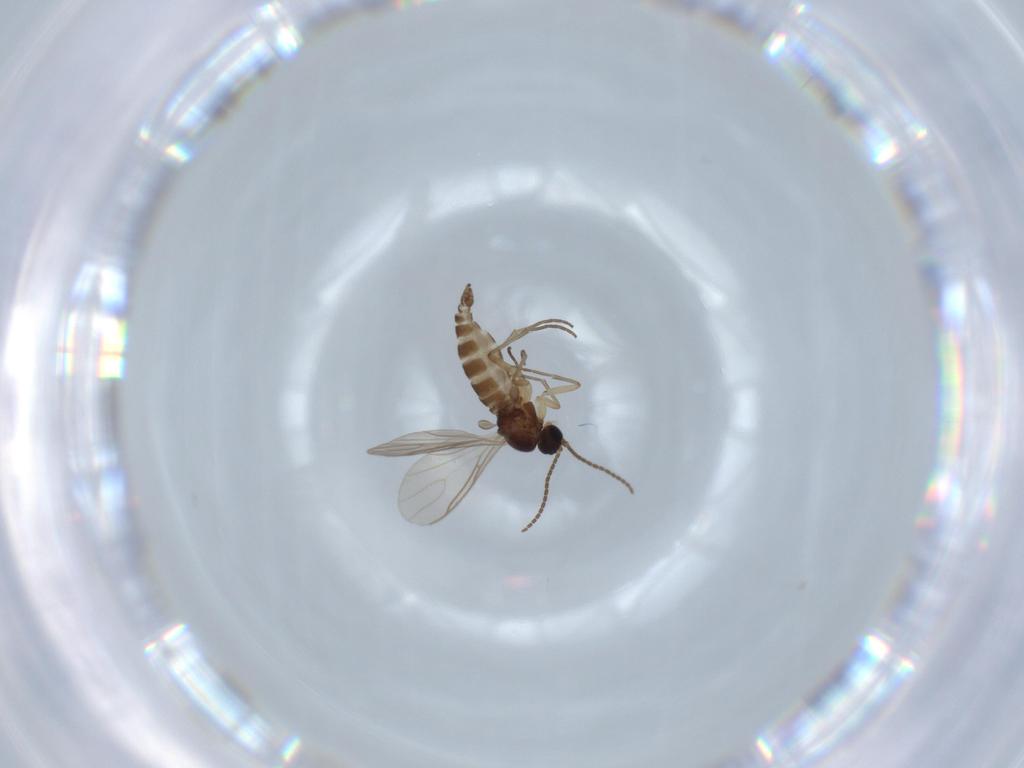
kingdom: Animalia
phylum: Arthropoda
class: Insecta
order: Diptera
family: Sciaridae
